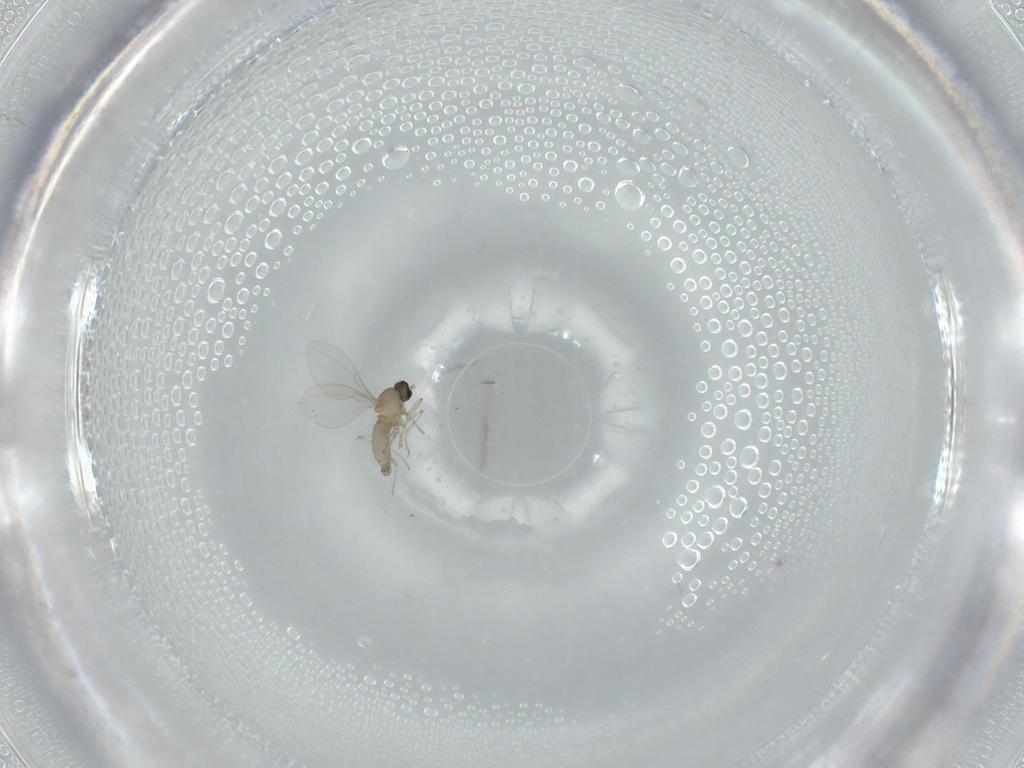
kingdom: Animalia
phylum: Arthropoda
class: Insecta
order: Diptera
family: Cecidomyiidae
